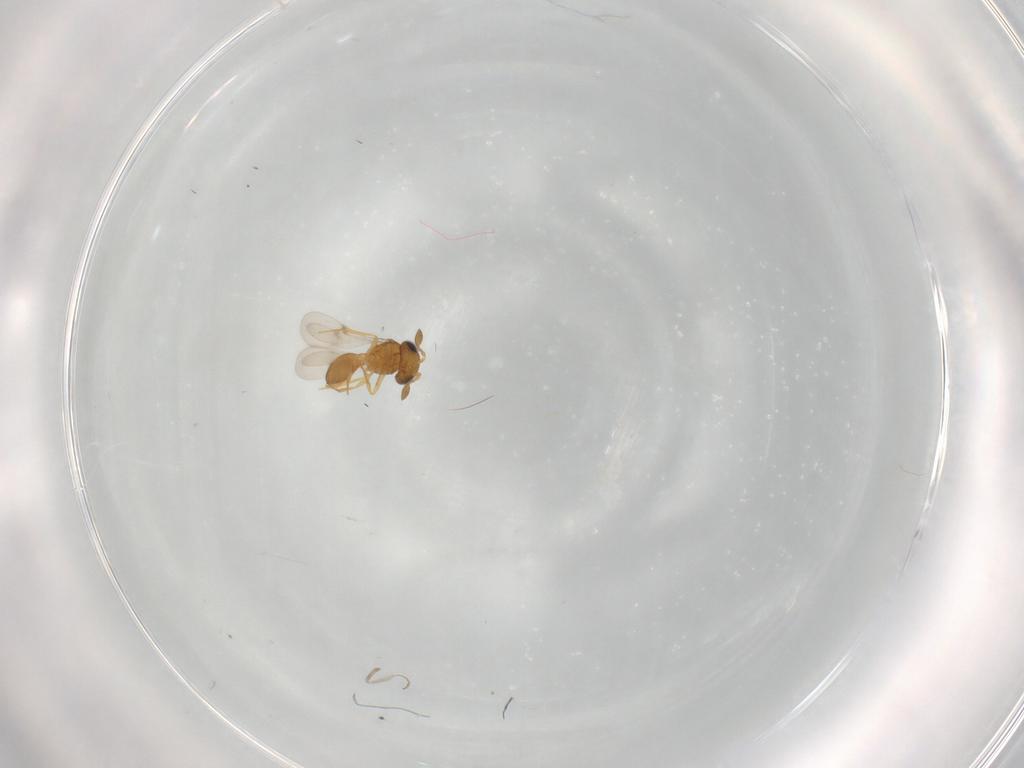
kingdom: Animalia
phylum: Arthropoda
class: Insecta
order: Hymenoptera
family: Scelionidae
